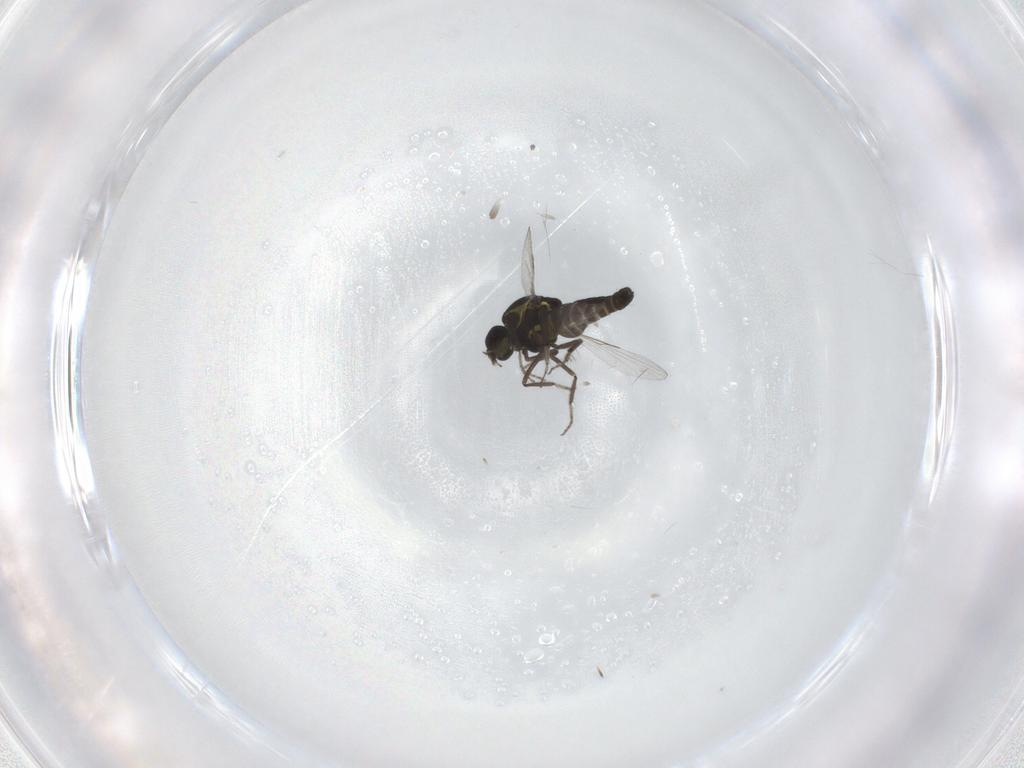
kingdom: Animalia
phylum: Arthropoda
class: Insecta
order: Diptera
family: Ceratopogonidae
